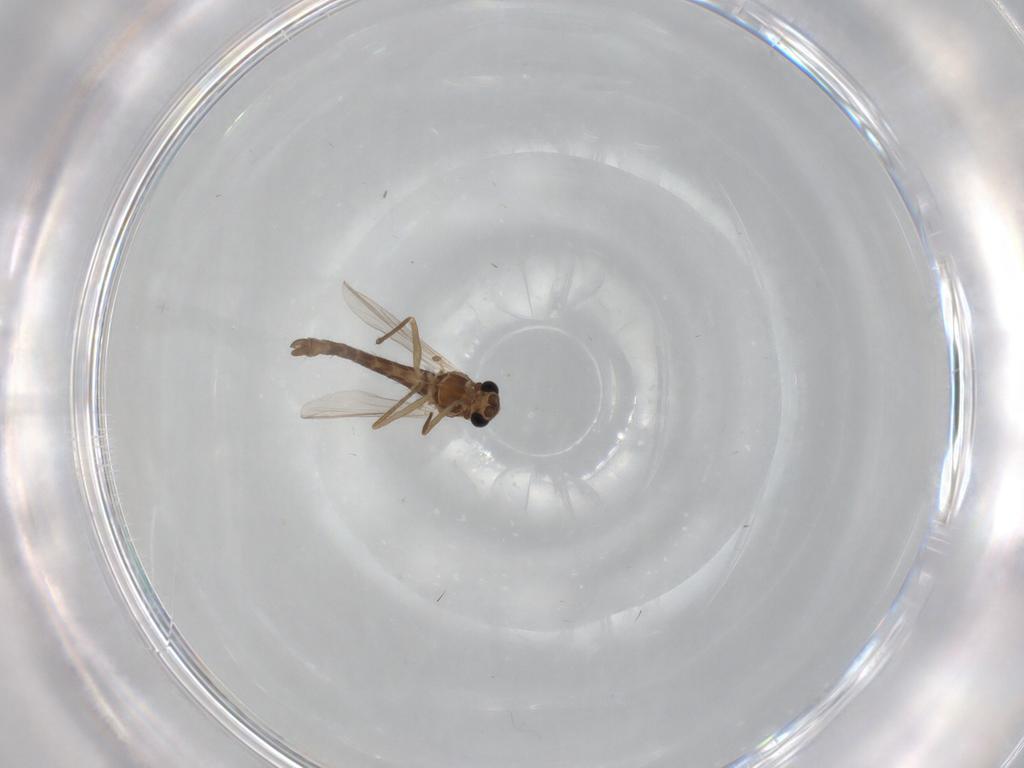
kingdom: Animalia
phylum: Arthropoda
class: Insecta
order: Diptera
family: Chironomidae
